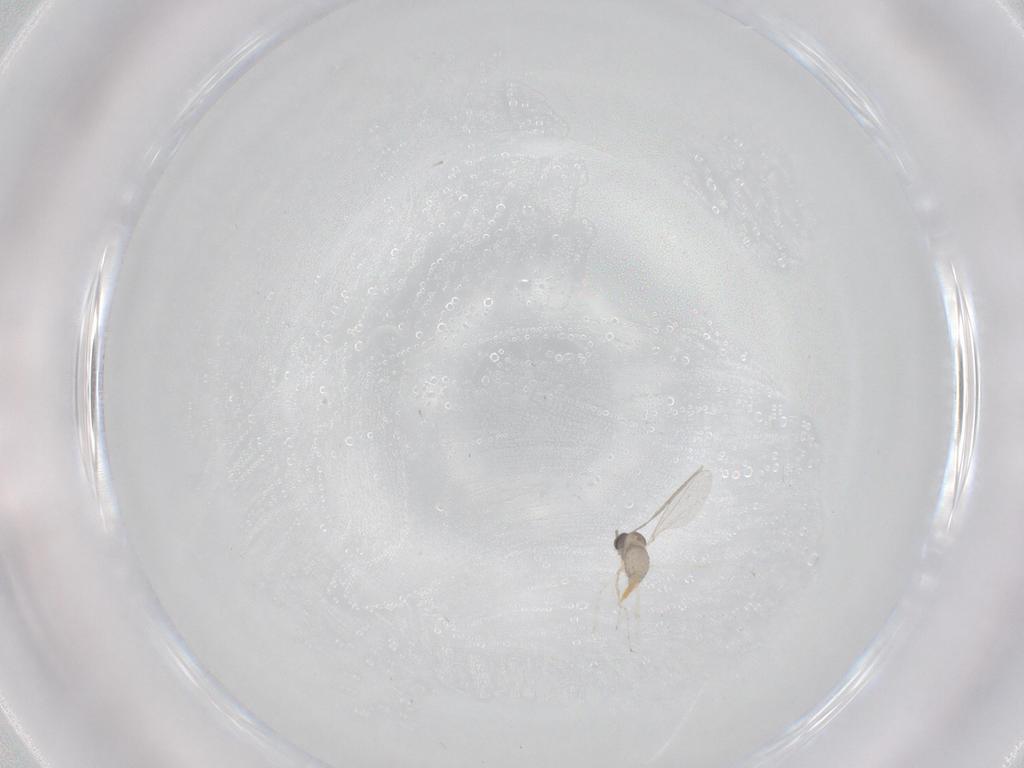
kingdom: Animalia
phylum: Arthropoda
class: Insecta
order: Diptera
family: Cecidomyiidae
